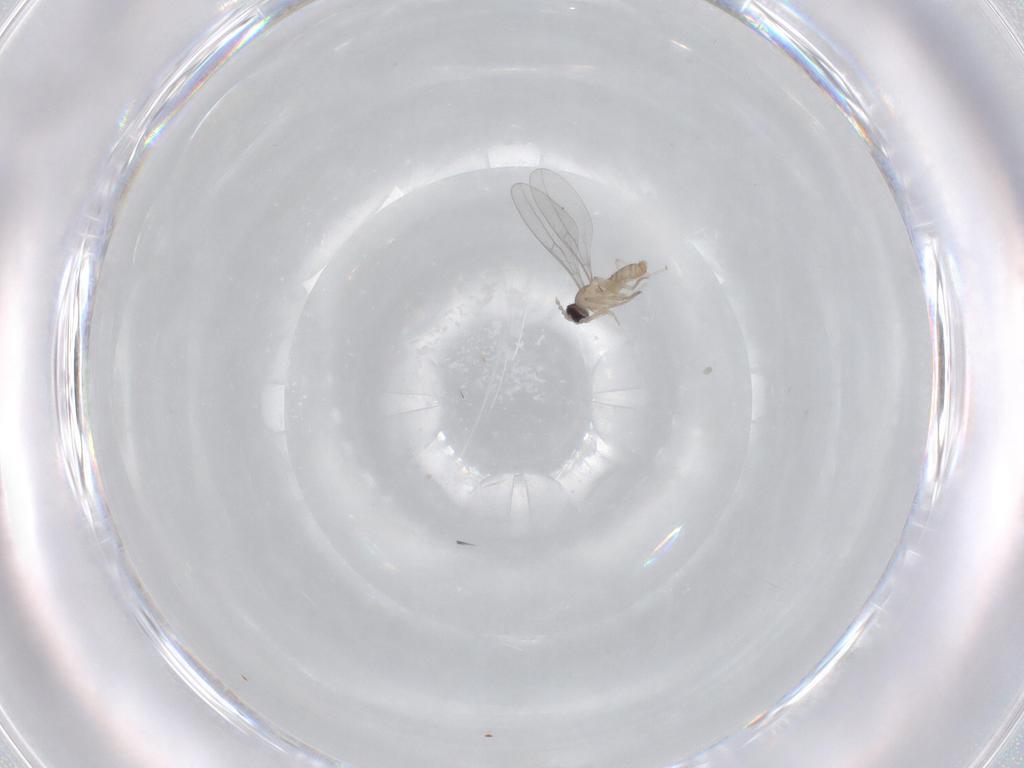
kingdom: Animalia
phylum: Arthropoda
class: Insecta
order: Diptera
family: Cecidomyiidae
